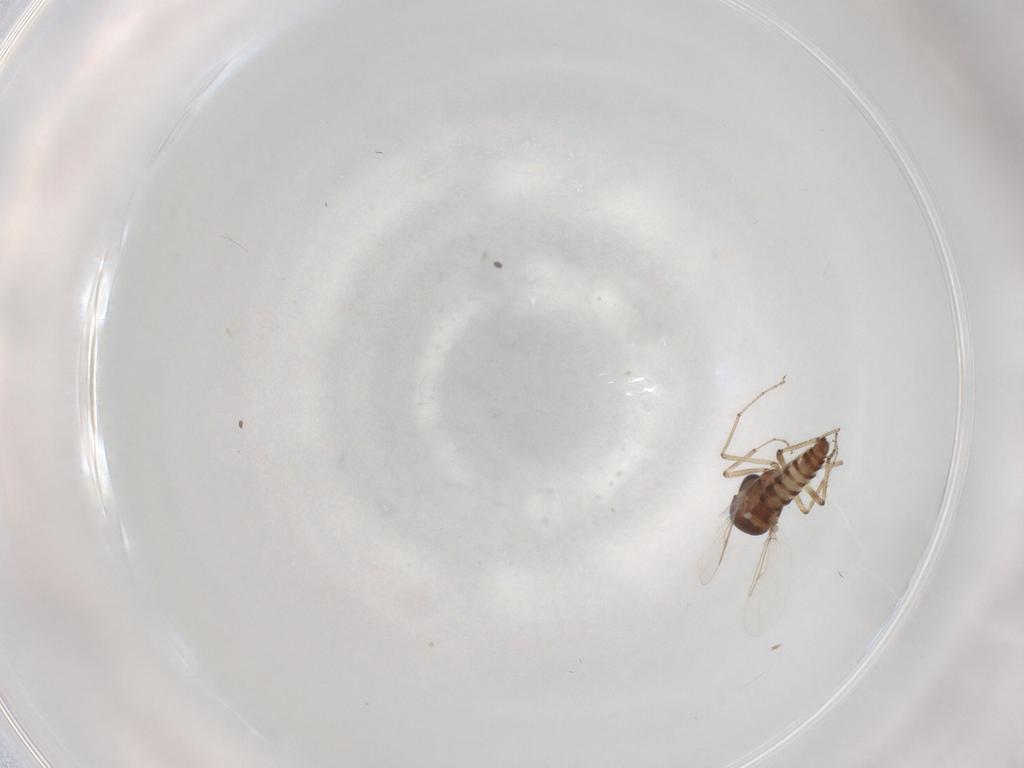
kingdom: Animalia
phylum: Arthropoda
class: Insecta
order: Diptera
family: Ceratopogonidae
